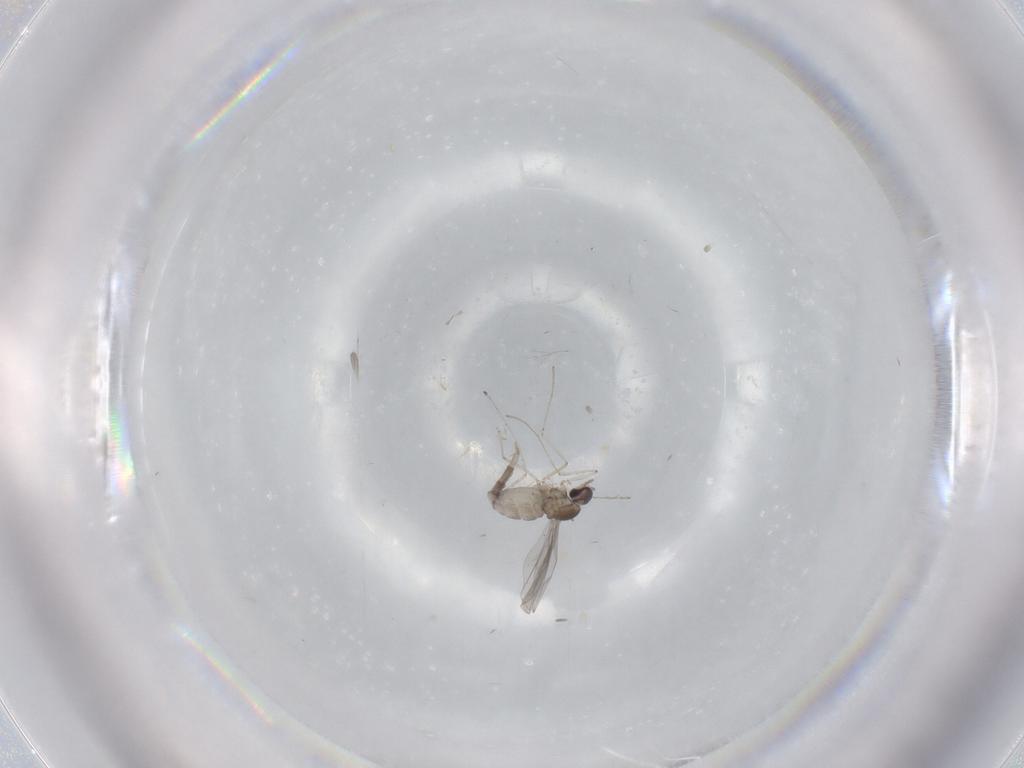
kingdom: Animalia
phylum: Arthropoda
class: Insecta
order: Diptera
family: Cecidomyiidae
